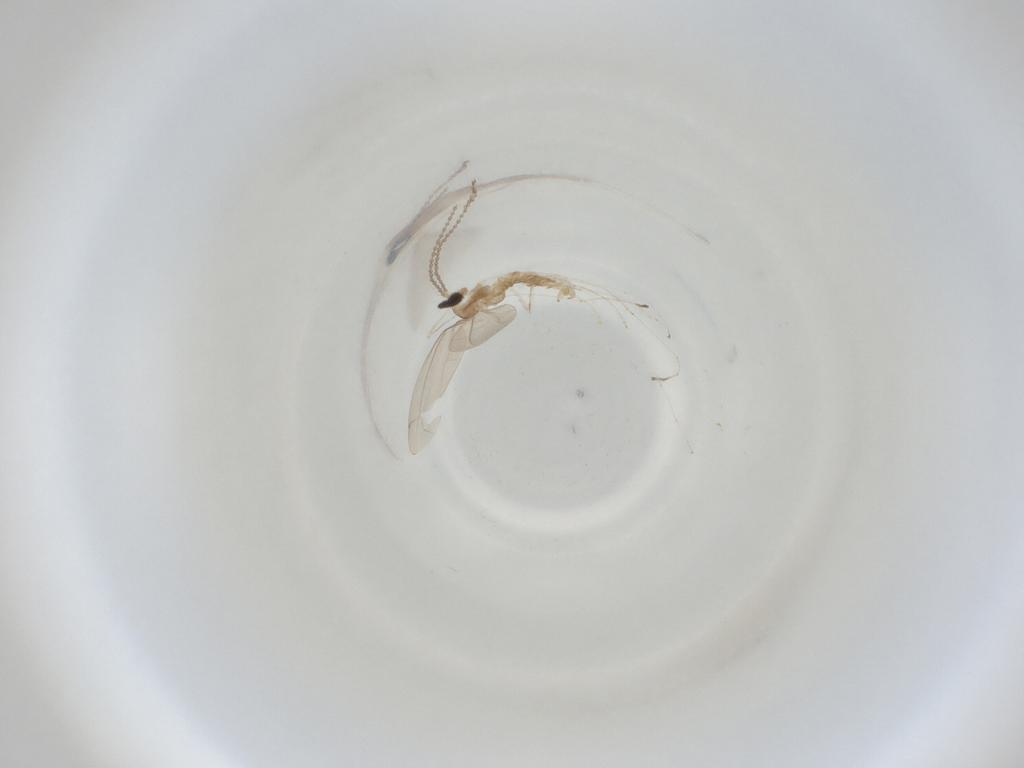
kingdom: Animalia
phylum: Arthropoda
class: Insecta
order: Diptera
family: Cecidomyiidae
